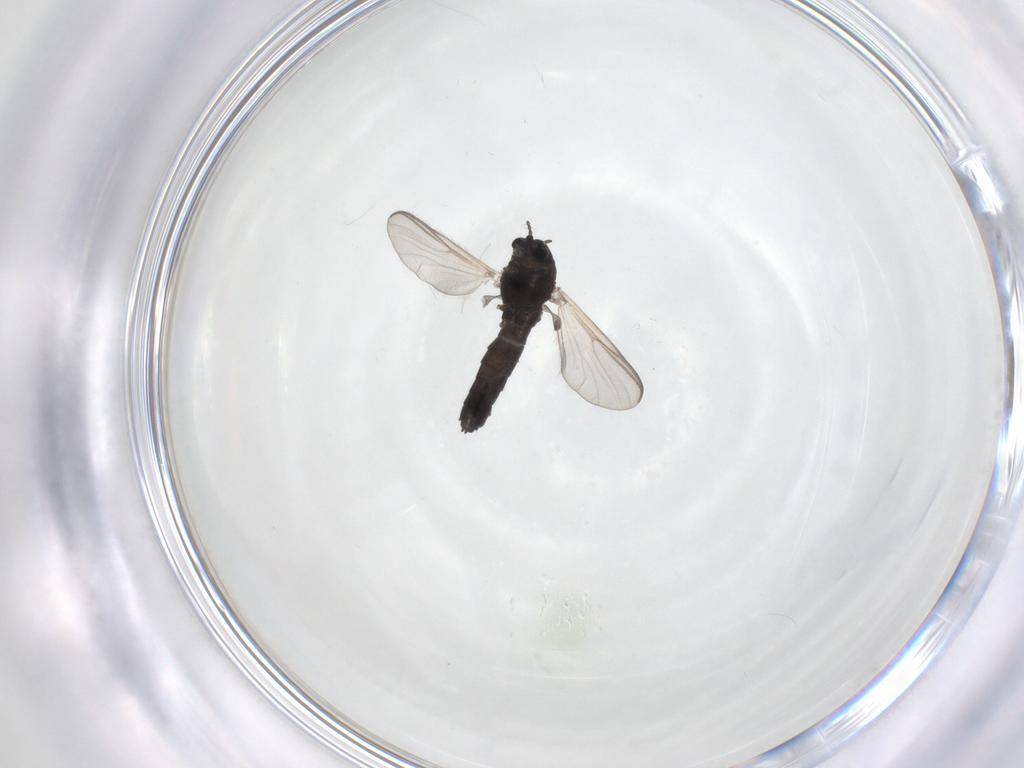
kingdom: Animalia
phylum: Arthropoda
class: Insecta
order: Diptera
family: Chironomidae
